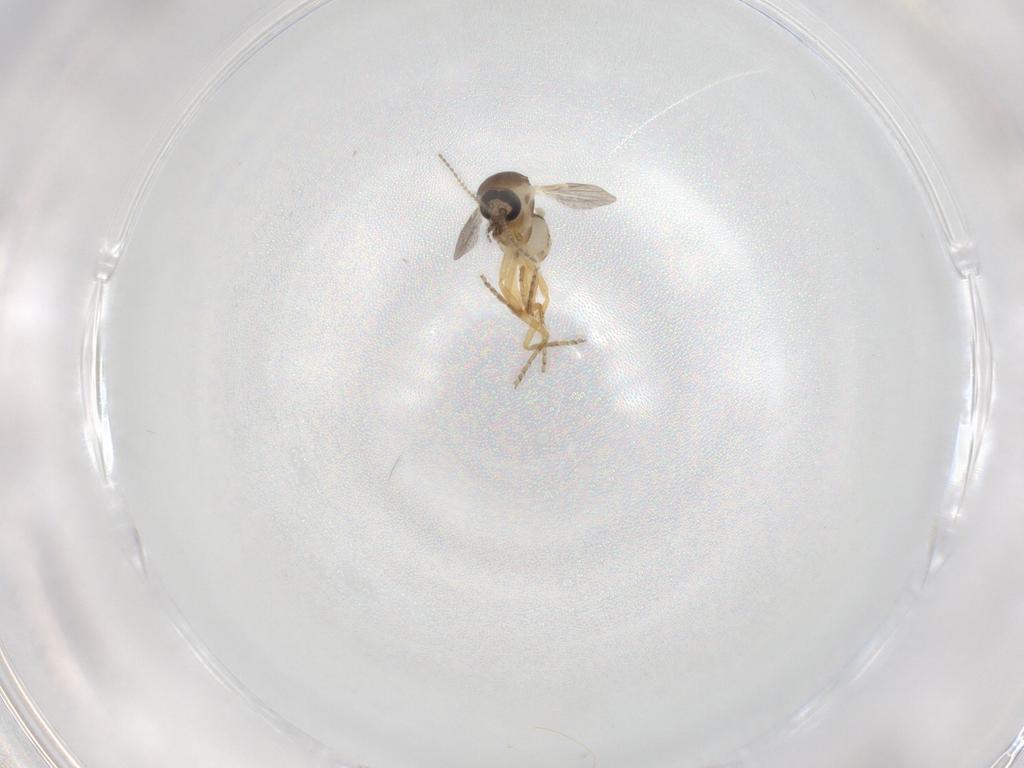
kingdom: Animalia
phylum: Arthropoda
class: Insecta
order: Diptera
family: Ceratopogonidae
